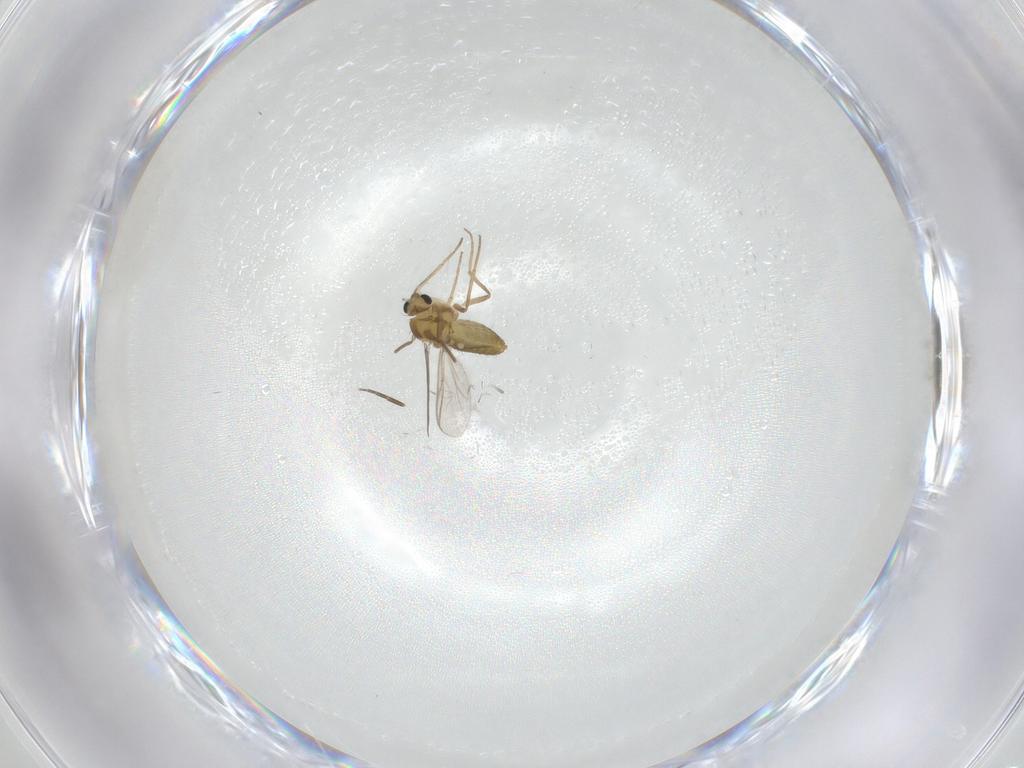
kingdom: Animalia
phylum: Arthropoda
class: Insecta
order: Diptera
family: Chironomidae
